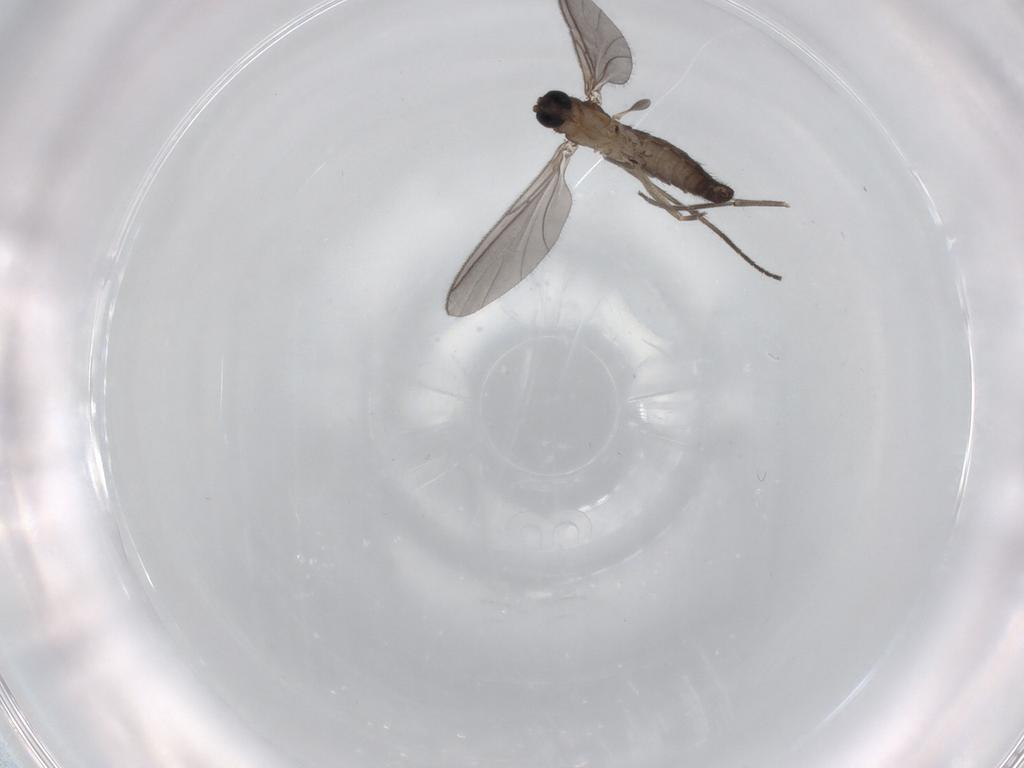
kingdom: Animalia
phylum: Arthropoda
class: Insecta
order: Diptera
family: Sciaridae
